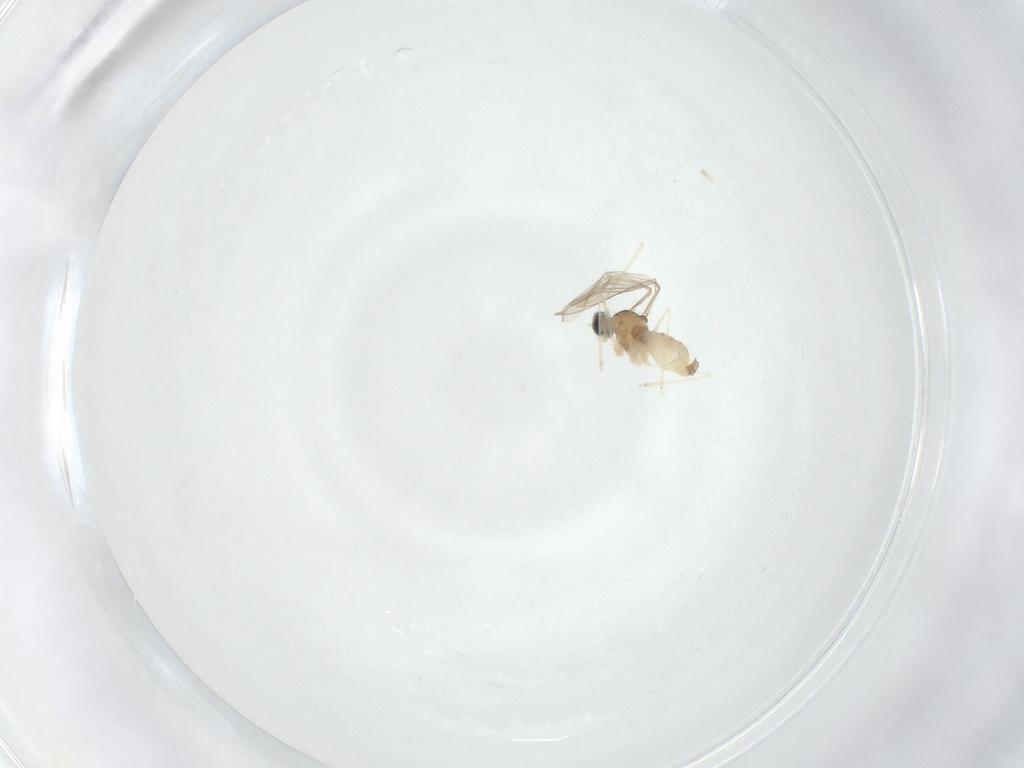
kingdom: Animalia
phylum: Arthropoda
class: Insecta
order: Diptera
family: Cecidomyiidae
